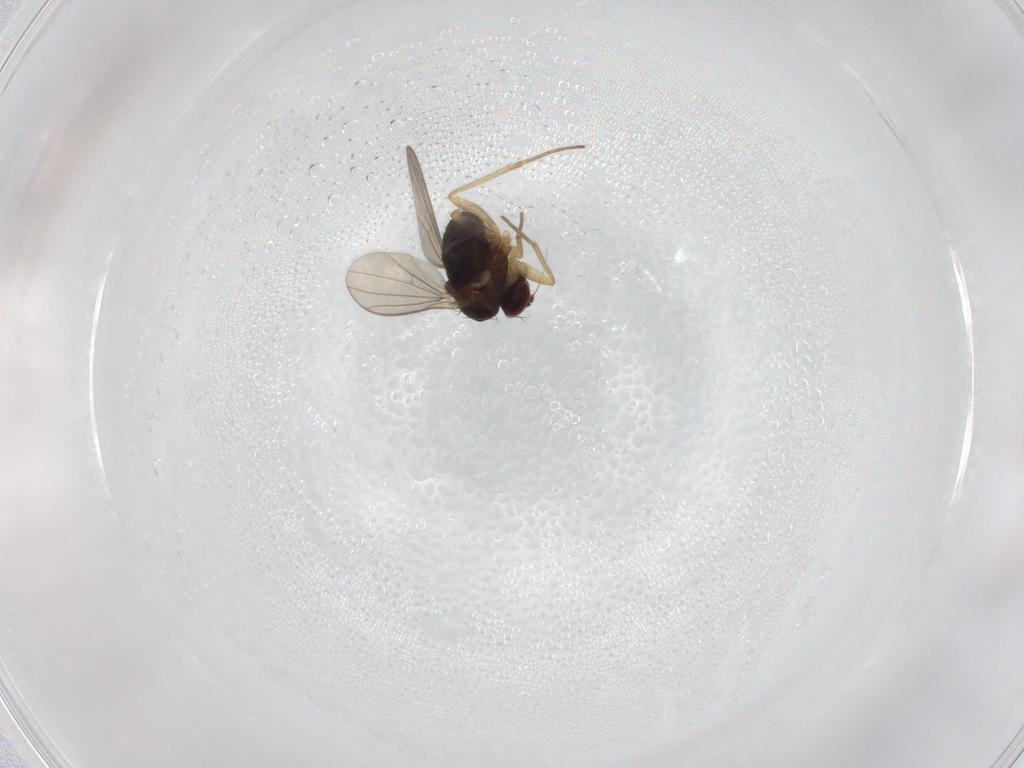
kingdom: Animalia
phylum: Arthropoda
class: Insecta
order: Diptera
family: Dolichopodidae
